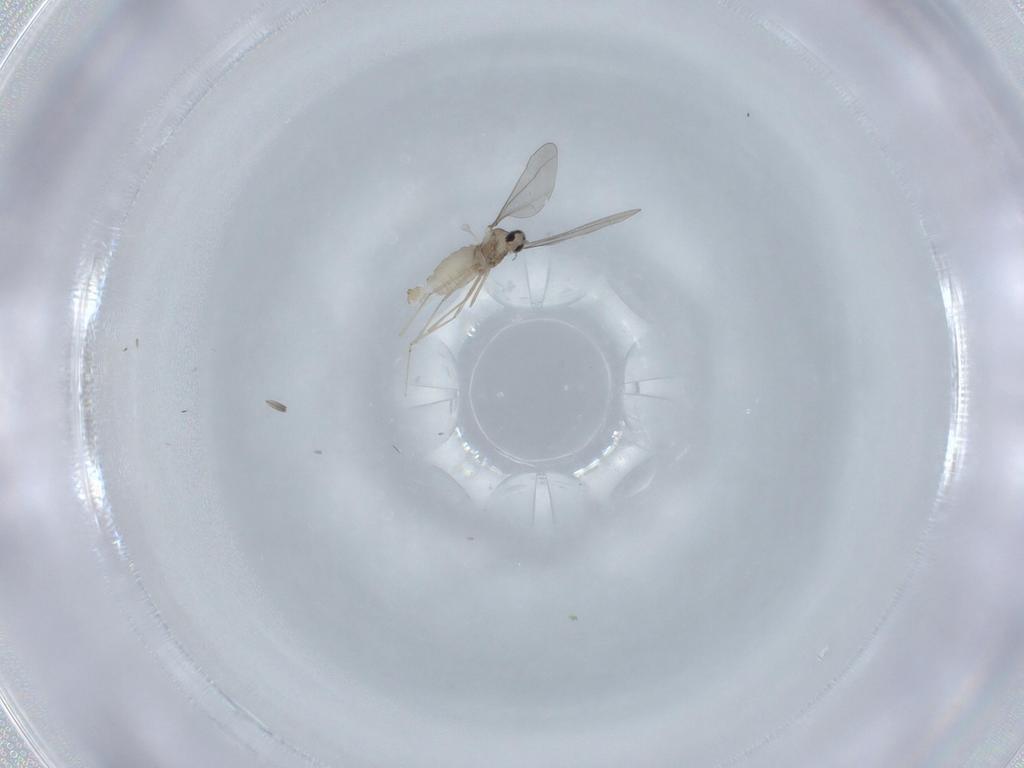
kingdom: Animalia
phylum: Arthropoda
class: Insecta
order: Diptera
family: Cecidomyiidae
